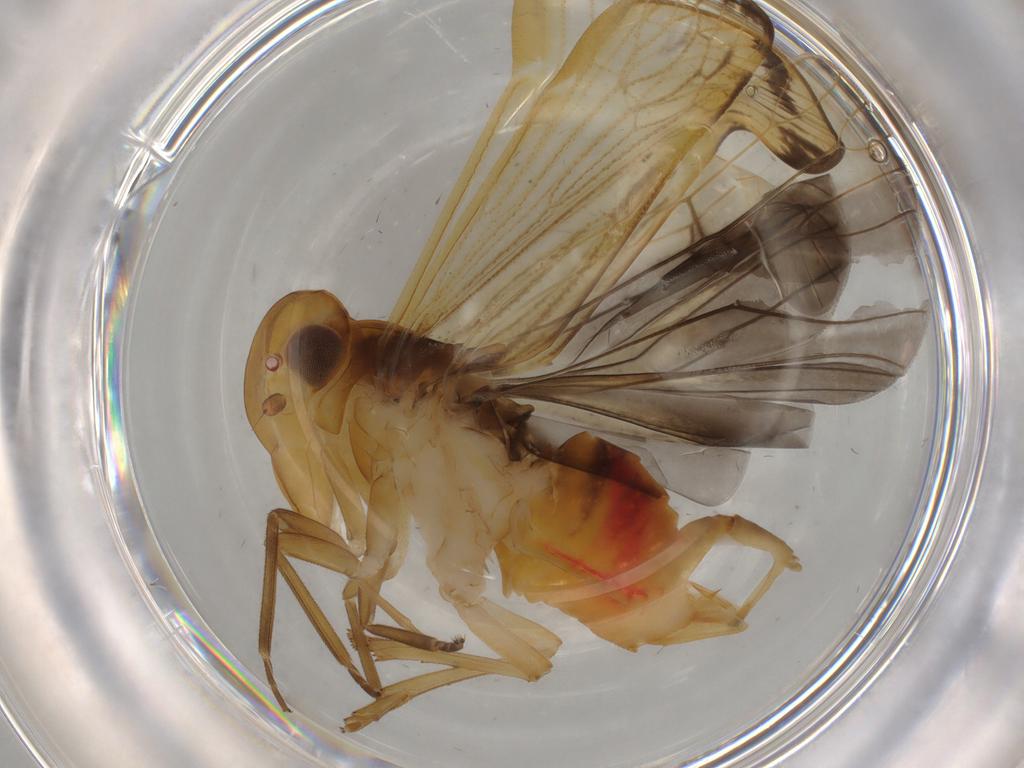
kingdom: Animalia
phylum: Arthropoda
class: Insecta
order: Hemiptera
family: Cixiidae
